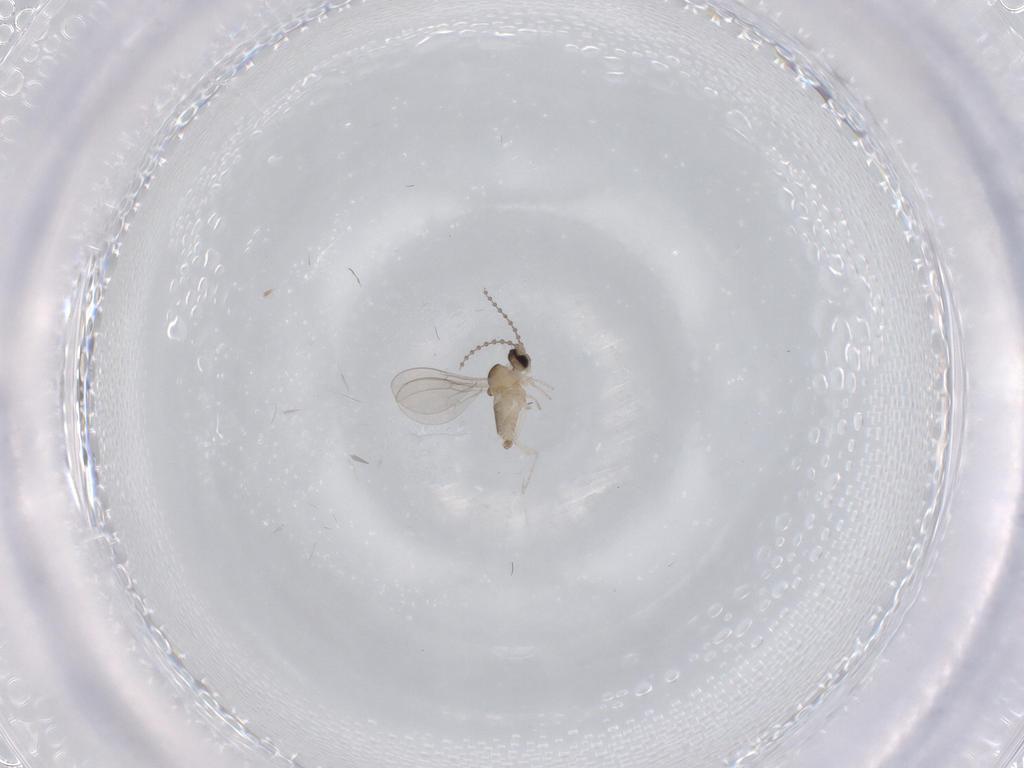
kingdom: Animalia
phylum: Arthropoda
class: Insecta
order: Diptera
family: Cecidomyiidae
